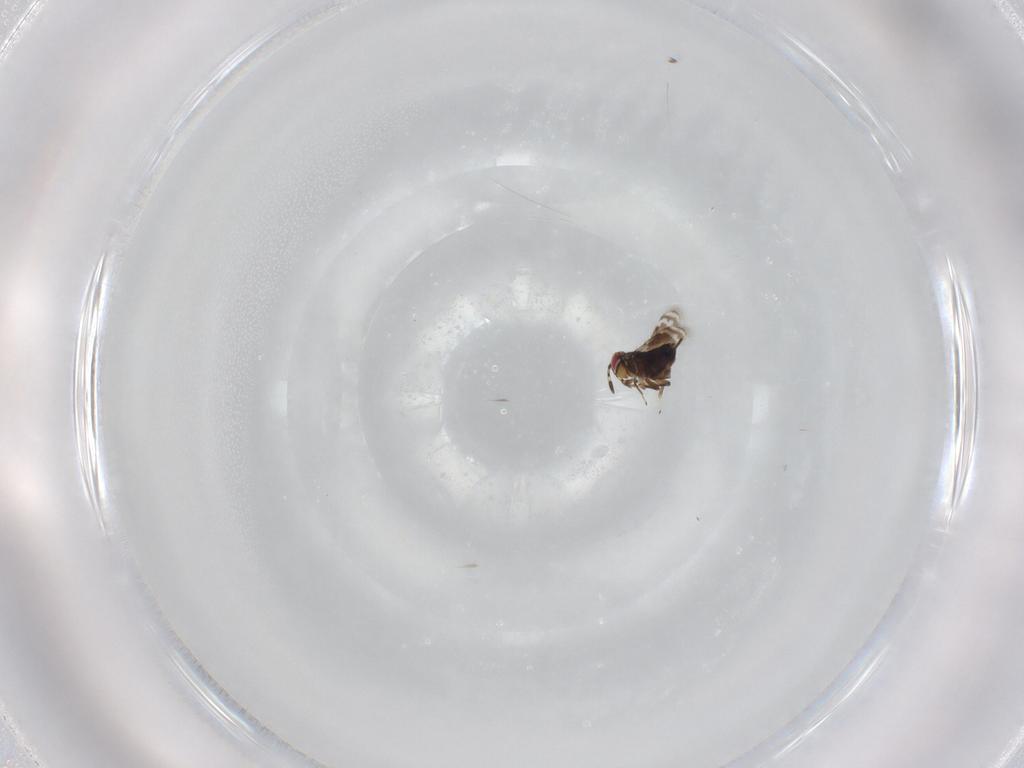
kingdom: Animalia
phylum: Arthropoda
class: Insecta
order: Hymenoptera
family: Azotidae
